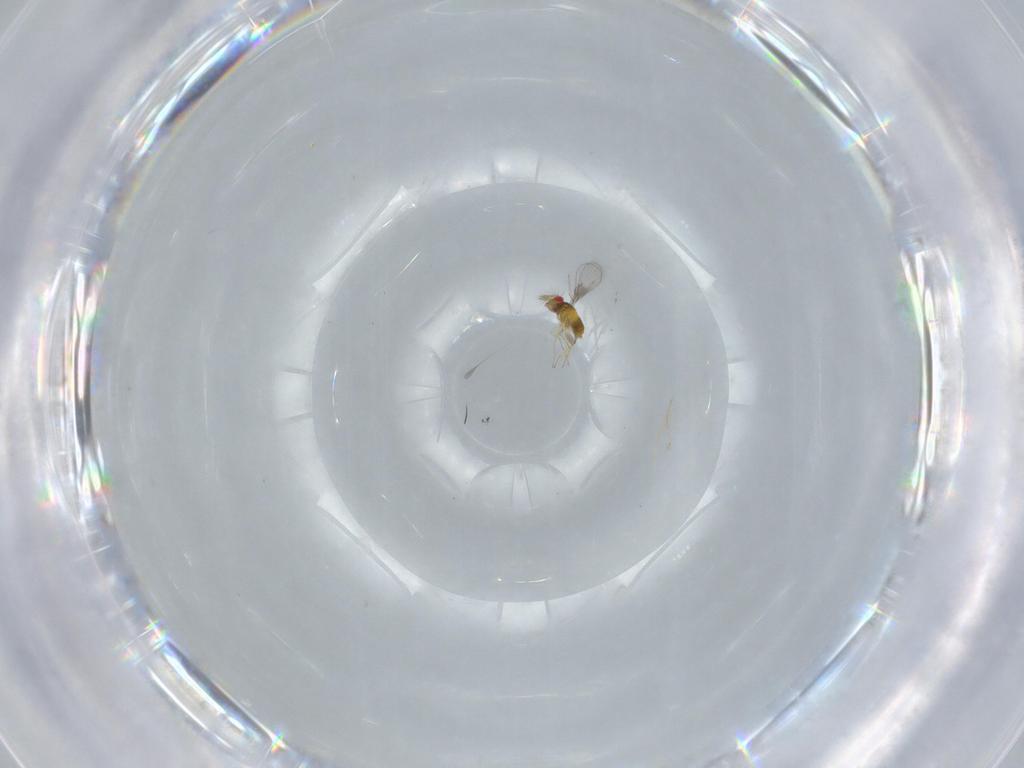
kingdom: Animalia
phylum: Arthropoda
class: Insecta
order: Hymenoptera
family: Trichogrammatidae
